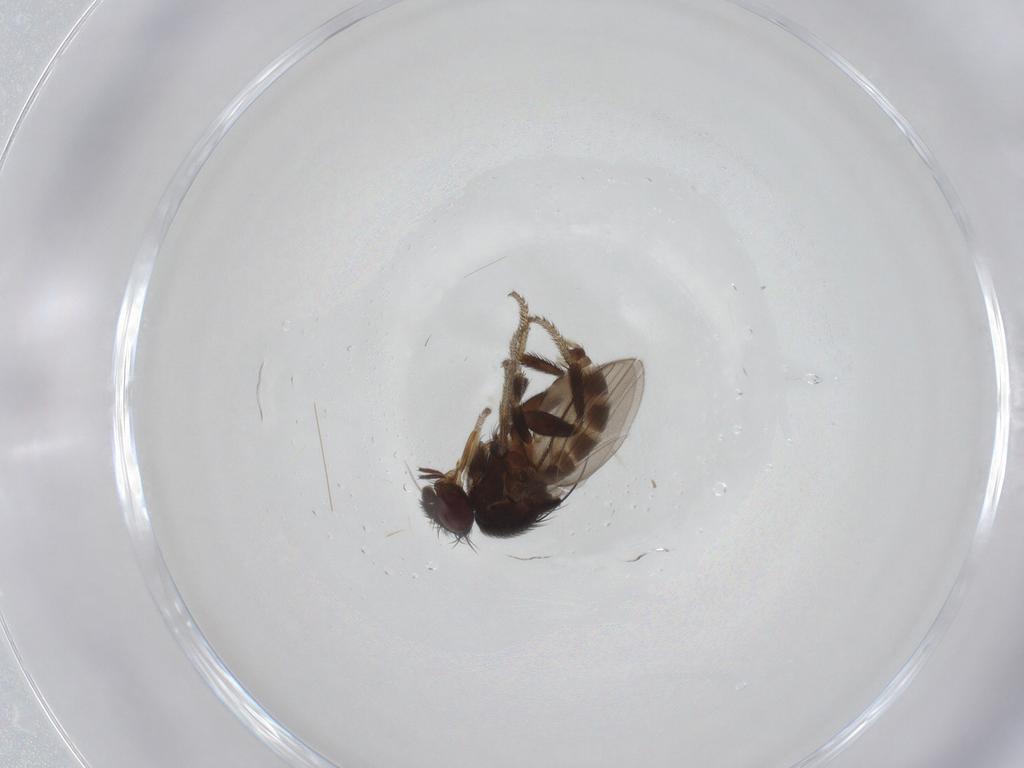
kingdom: Animalia
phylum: Arthropoda
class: Insecta
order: Diptera
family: Milichiidae
